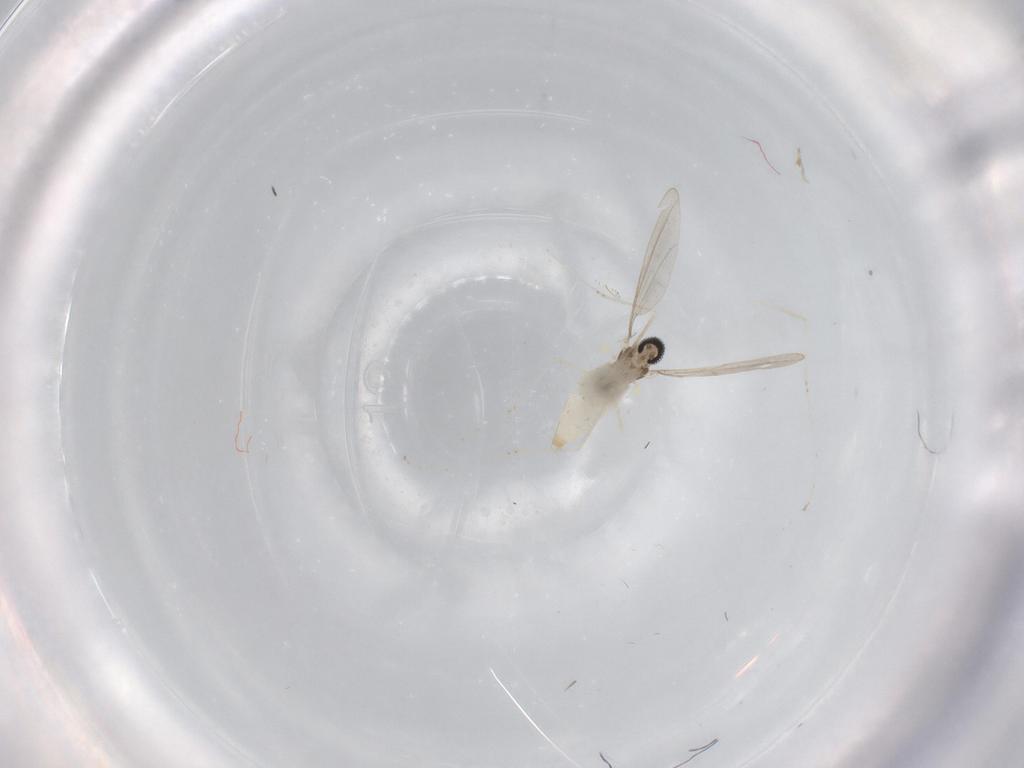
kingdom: Animalia
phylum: Arthropoda
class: Insecta
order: Diptera
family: Cecidomyiidae
